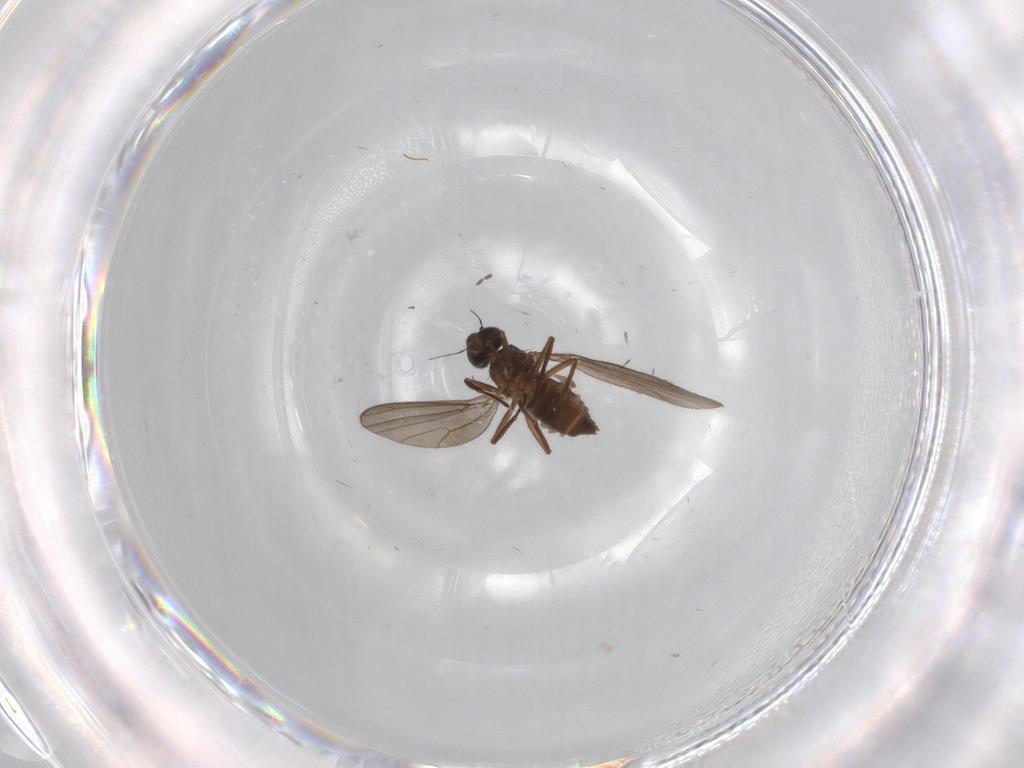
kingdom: Animalia
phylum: Arthropoda
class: Insecta
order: Diptera
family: Empididae
